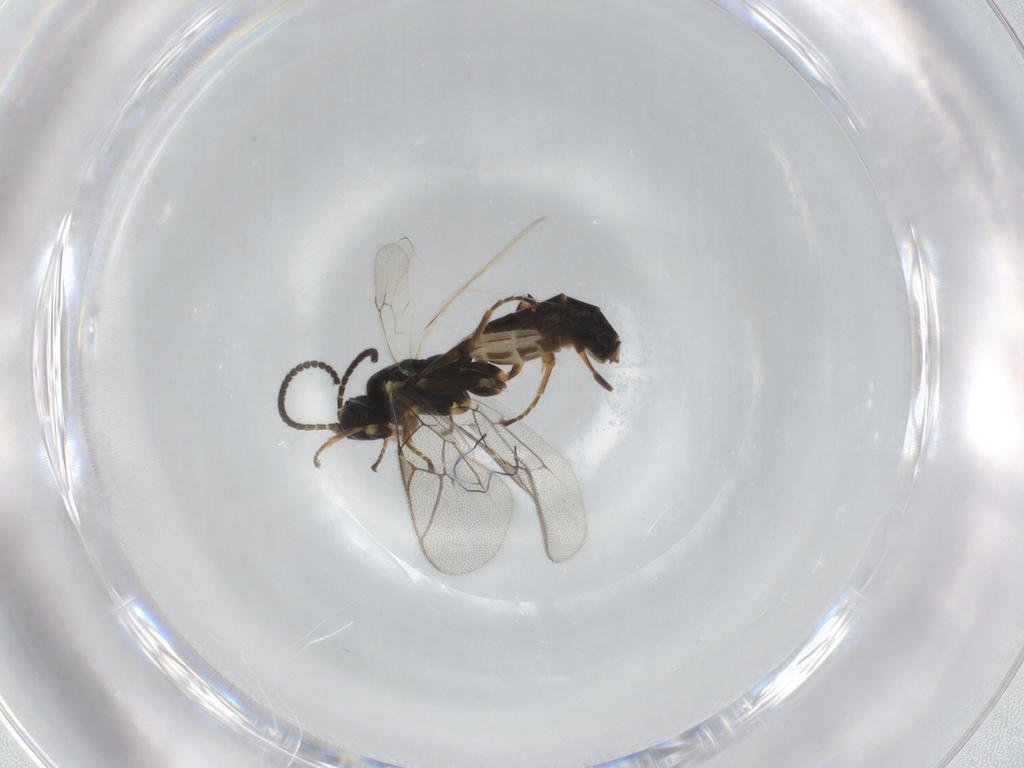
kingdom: Animalia
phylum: Arthropoda
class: Insecta
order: Hymenoptera
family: Ichneumonidae
